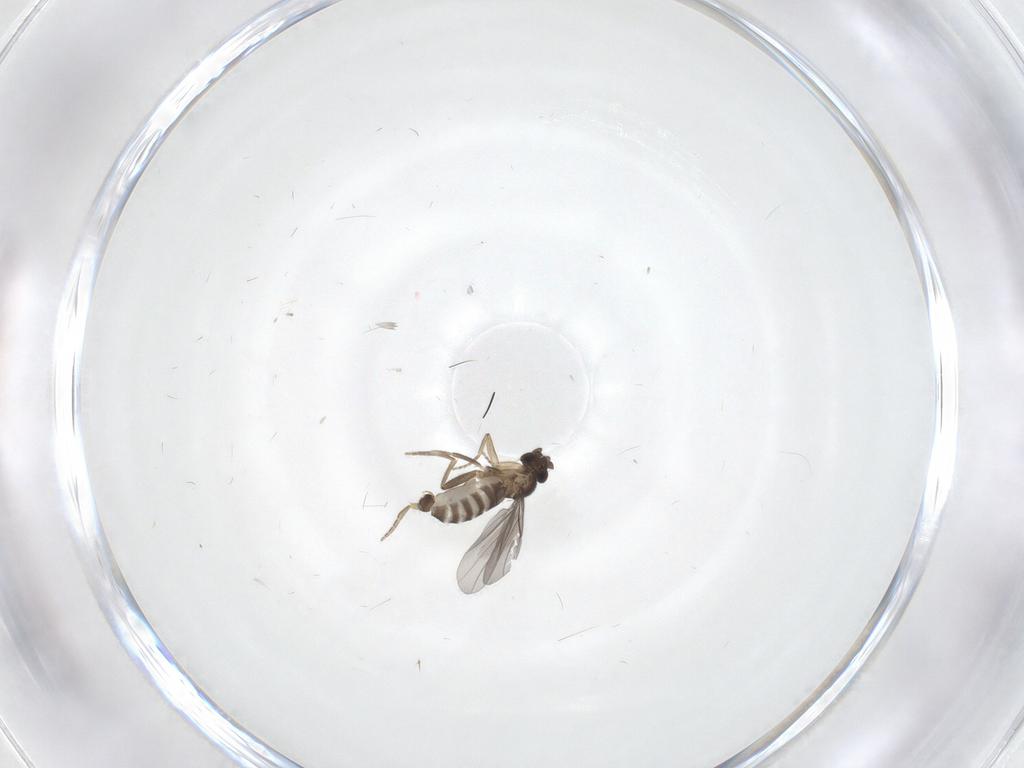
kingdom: Animalia
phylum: Arthropoda
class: Insecta
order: Diptera
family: Culicidae
